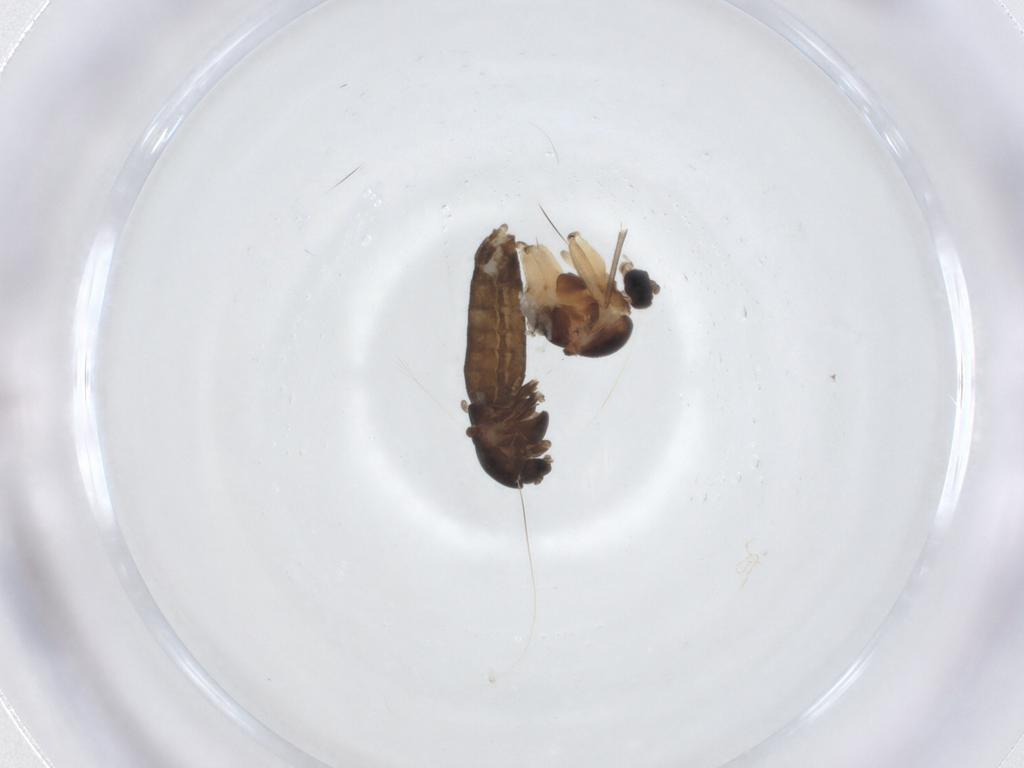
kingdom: Animalia
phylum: Arthropoda
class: Insecta
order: Diptera
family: Chironomidae
